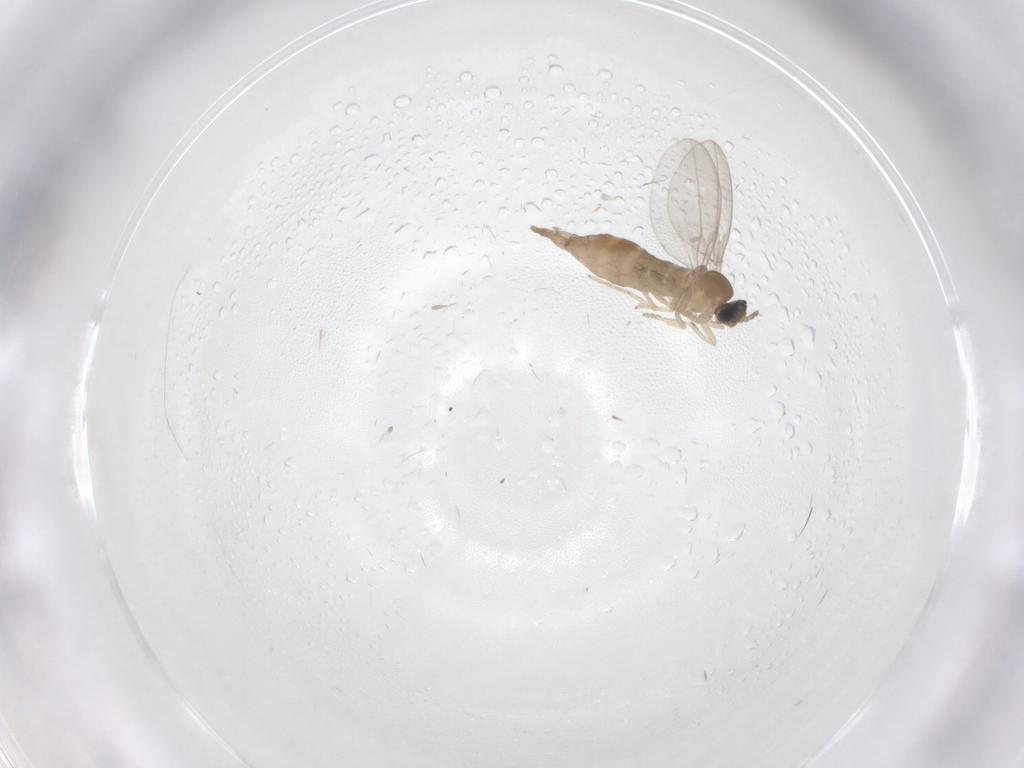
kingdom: Animalia
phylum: Arthropoda
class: Insecta
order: Diptera
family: Cecidomyiidae
